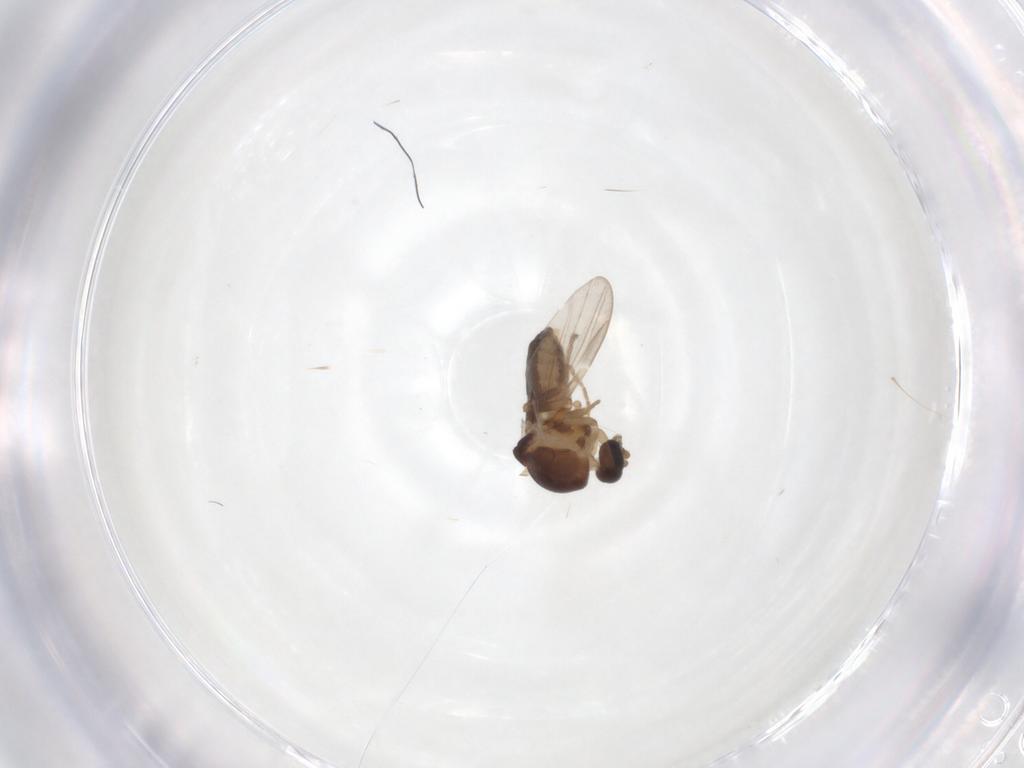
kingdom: Animalia
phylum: Arthropoda
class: Insecta
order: Diptera
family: Ceratopogonidae
